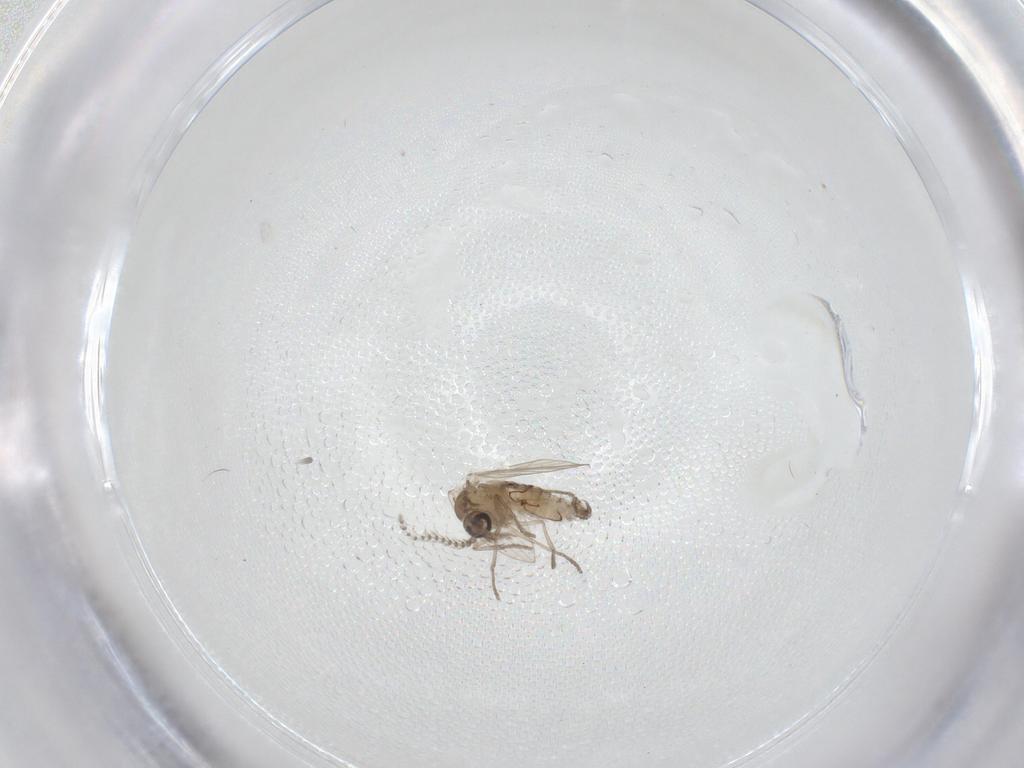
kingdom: Animalia
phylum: Arthropoda
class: Insecta
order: Diptera
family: Psychodidae
